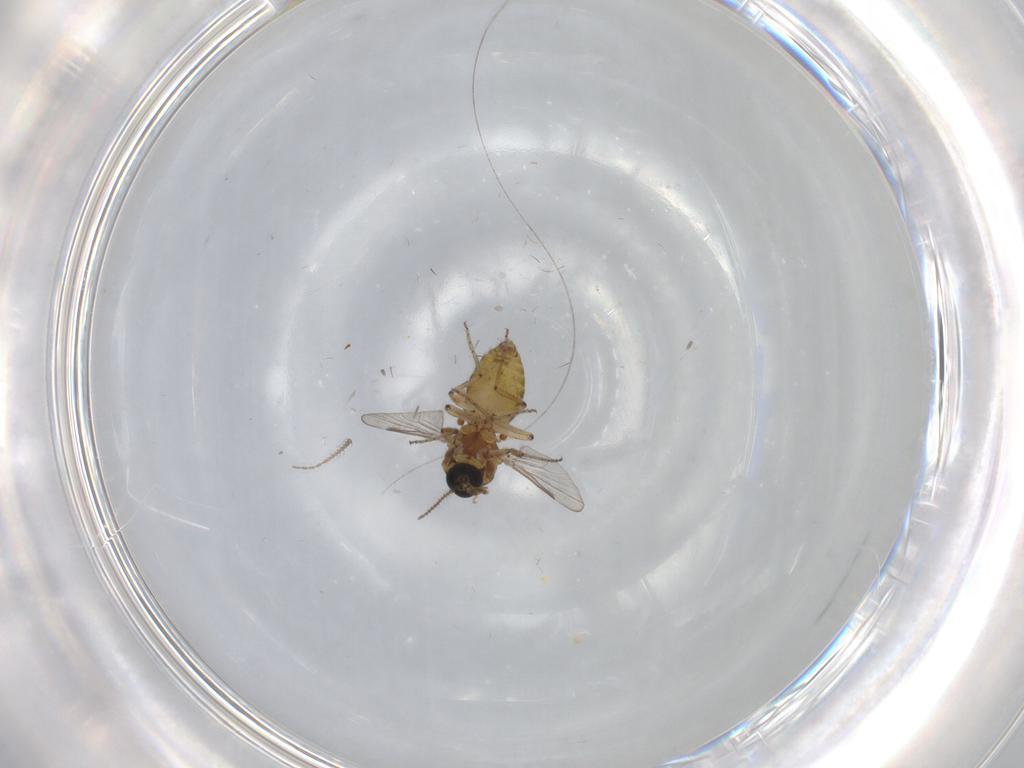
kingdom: Animalia
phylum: Arthropoda
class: Insecta
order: Diptera
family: Ceratopogonidae
